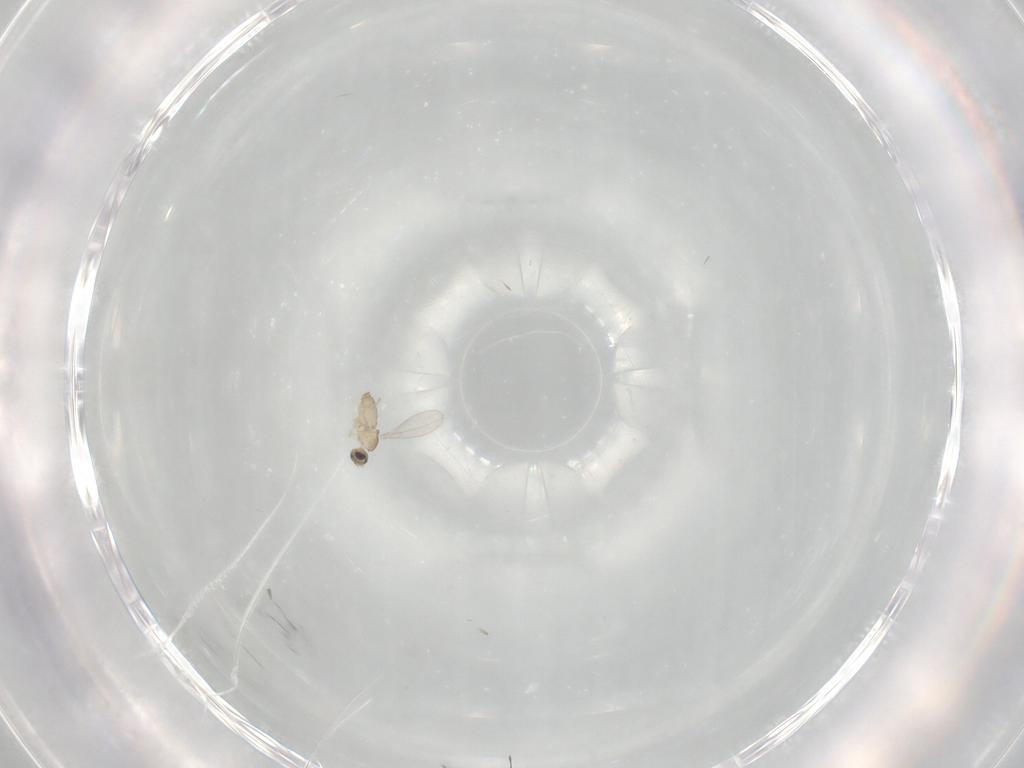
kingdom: Animalia
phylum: Arthropoda
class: Insecta
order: Diptera
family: Cecidomyiidae
